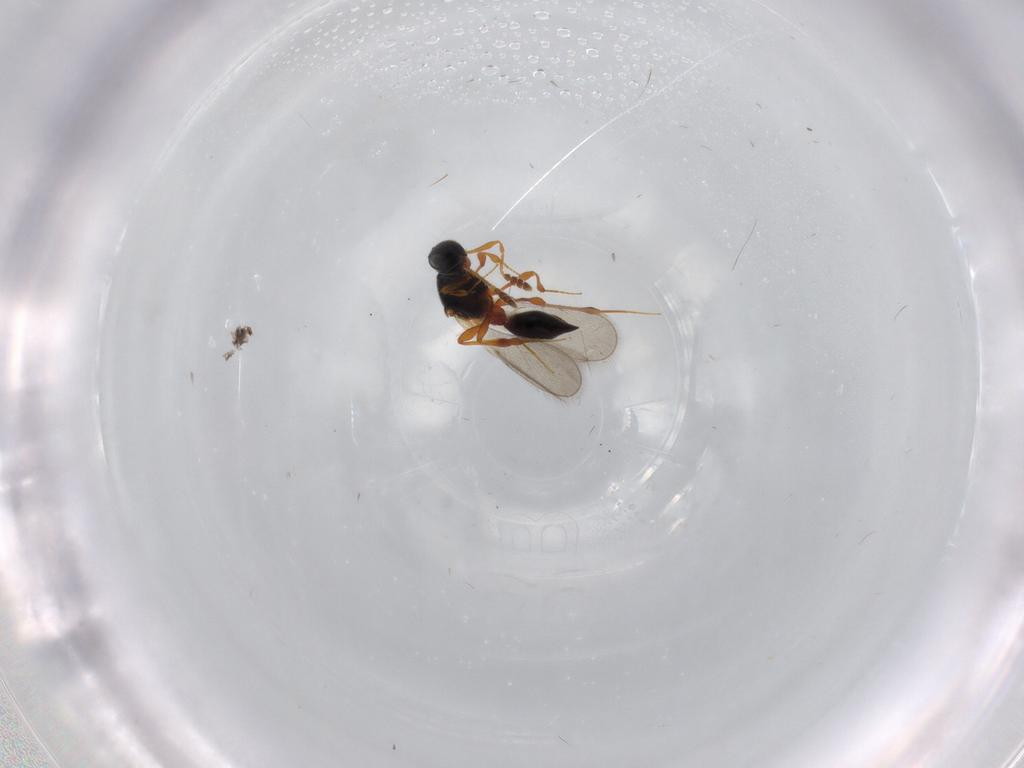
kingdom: Animalia
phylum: Arthropoda
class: Insecta
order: Hymenoptera
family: Platygastridae
